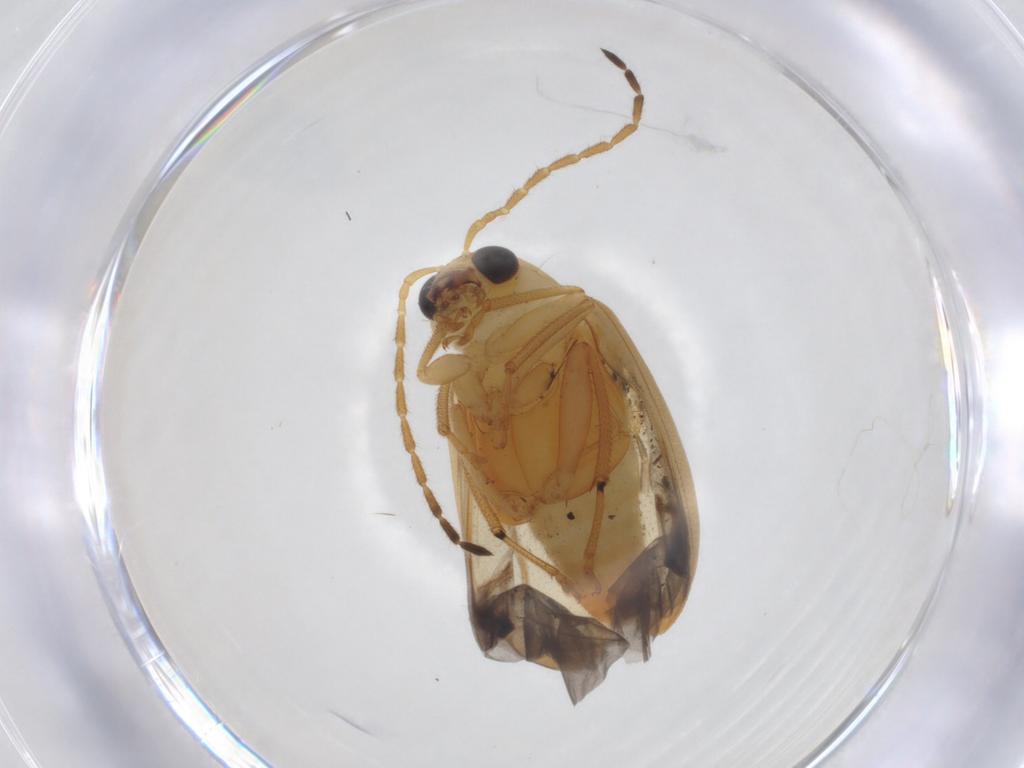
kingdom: Animalia
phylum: Arthropoda
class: Insecta
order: Coleoptera
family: Chrysomelidae
